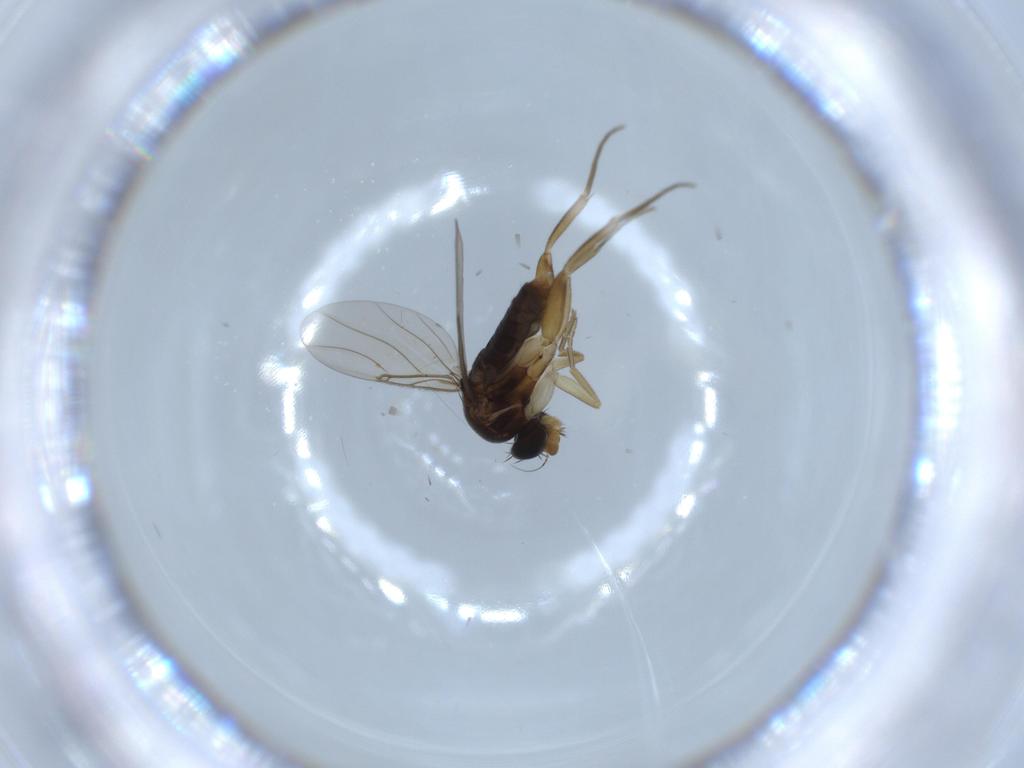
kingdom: Animalia
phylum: Arthropoda
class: Insecta
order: Diptera
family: Phoridae
